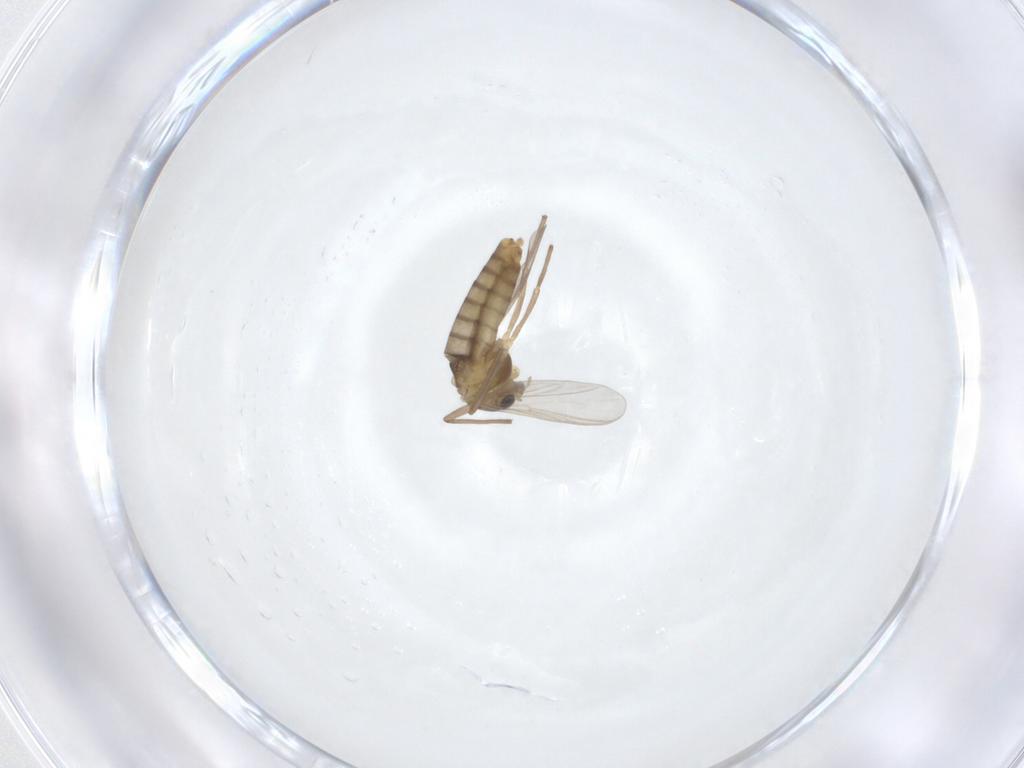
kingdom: Animalia
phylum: Arthropoda
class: Insecta
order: Diptera
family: Chironomidae
